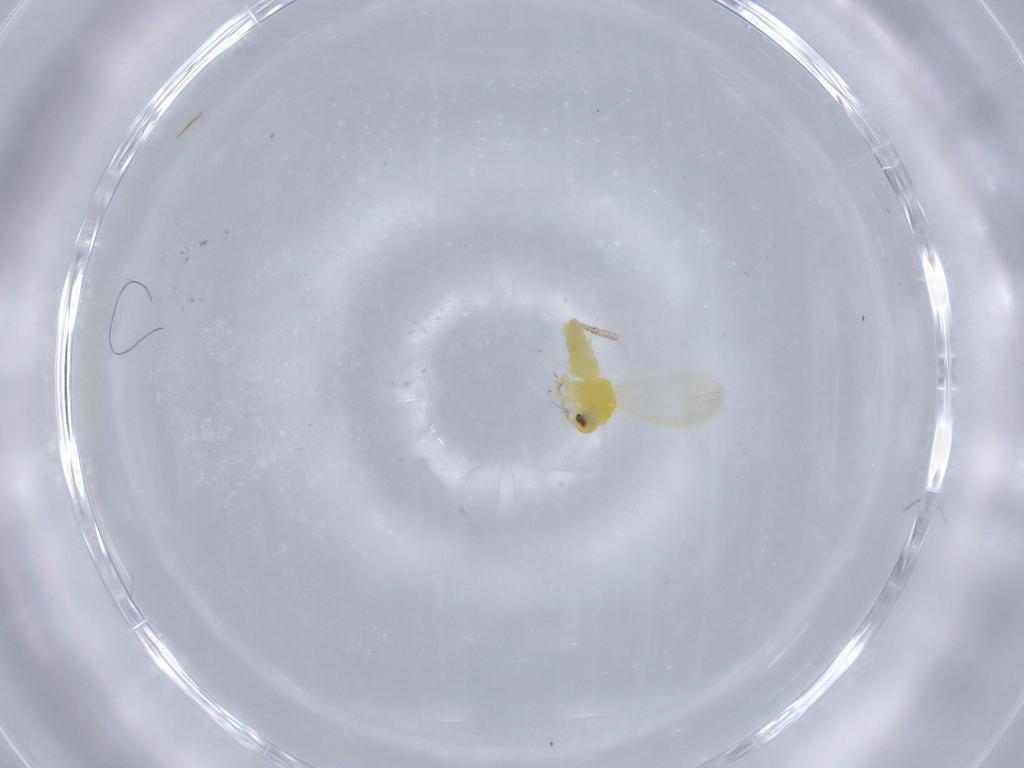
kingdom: Animalia
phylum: Arthropoda
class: Insecta
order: Hemiptera
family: Aleyrodidae
